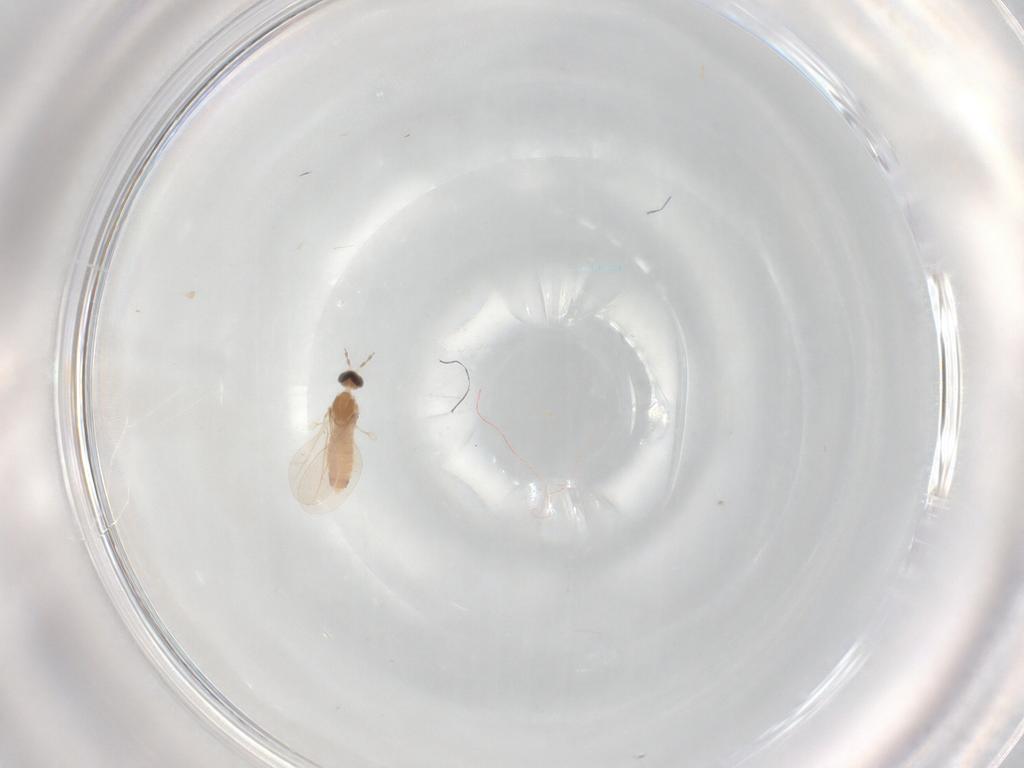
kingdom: Animalia
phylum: Arthropoda
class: Insecta
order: Diptera
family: Cecidomyiidae
